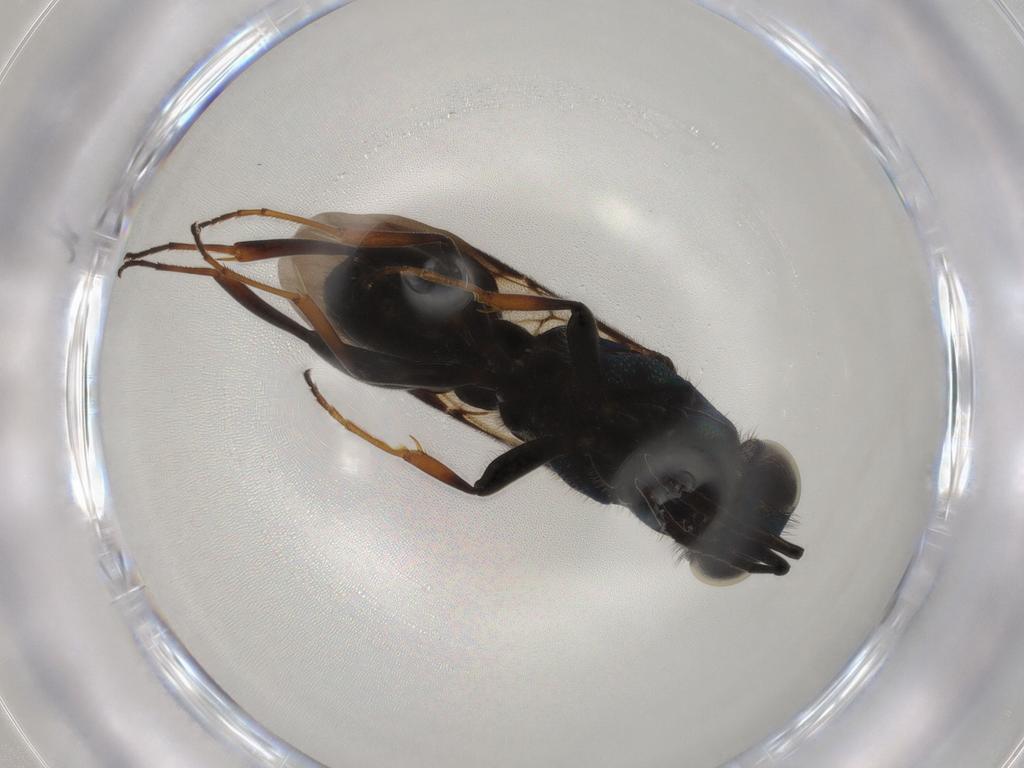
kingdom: Animalia
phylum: Arthropoda
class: Insecta
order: Hymenoptera
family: Chrysididae
